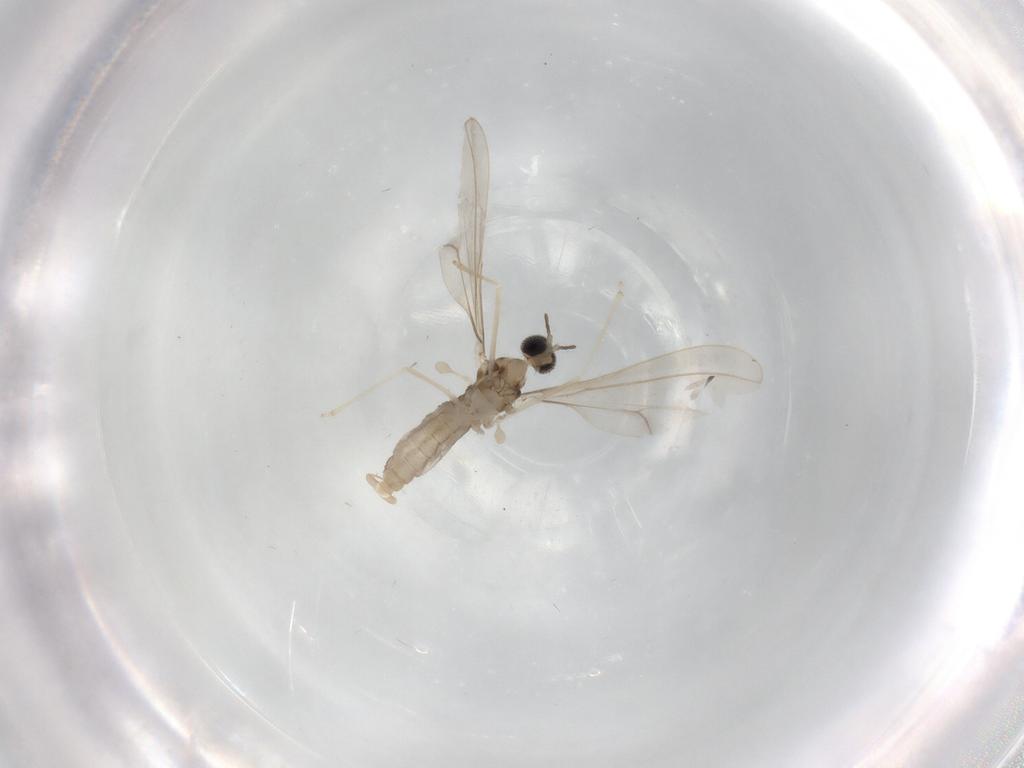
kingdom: Animalia
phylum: Arthropoda
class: Insecta
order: Diptera
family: Cecidomyiidae
